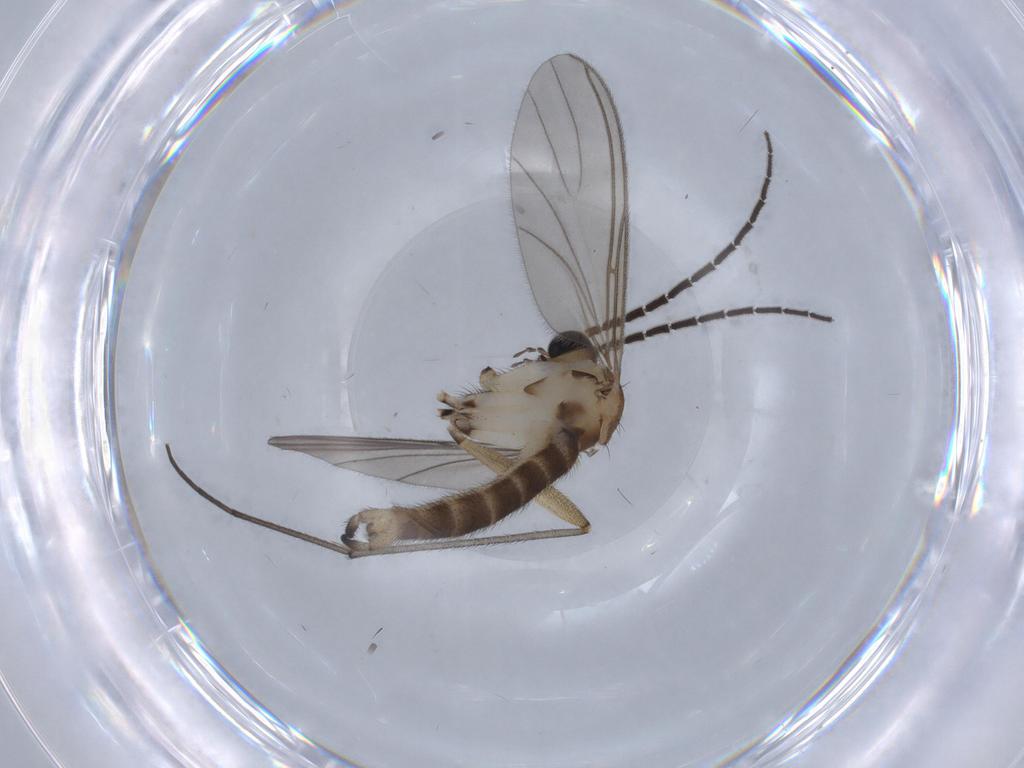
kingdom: Animalia
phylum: Arthropoda
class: Insecta
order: Diptera
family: Sciaridae
